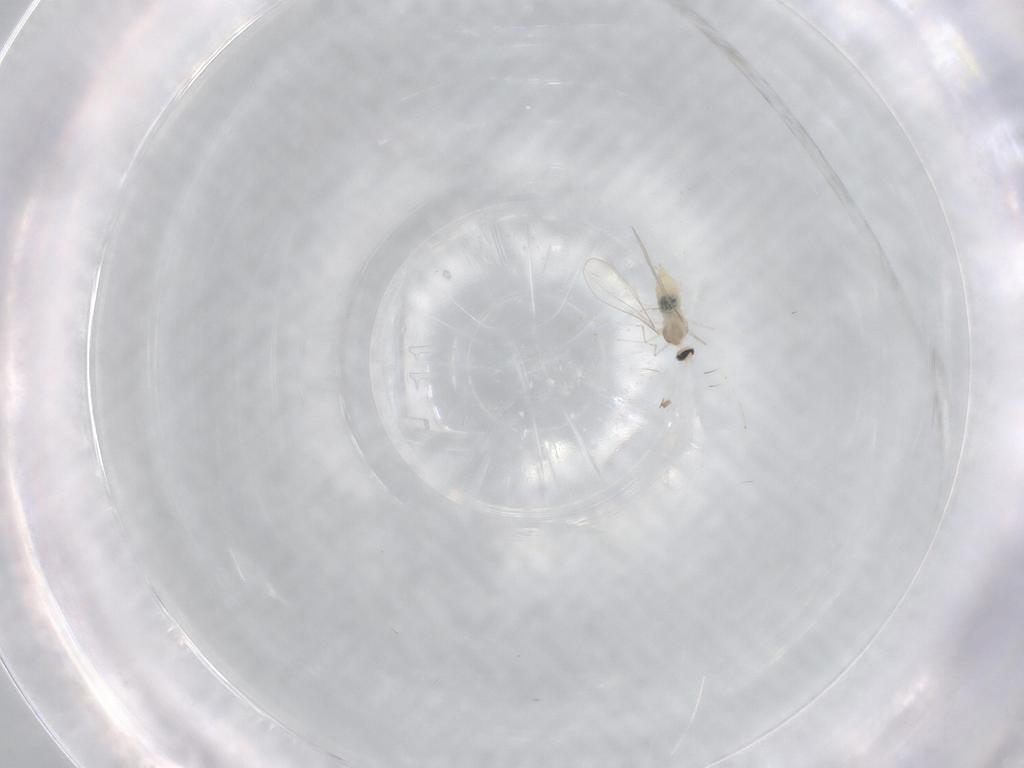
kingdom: Animalia
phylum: Arthropoda
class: Insecta
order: Diptera
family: Cecidomyiidae
